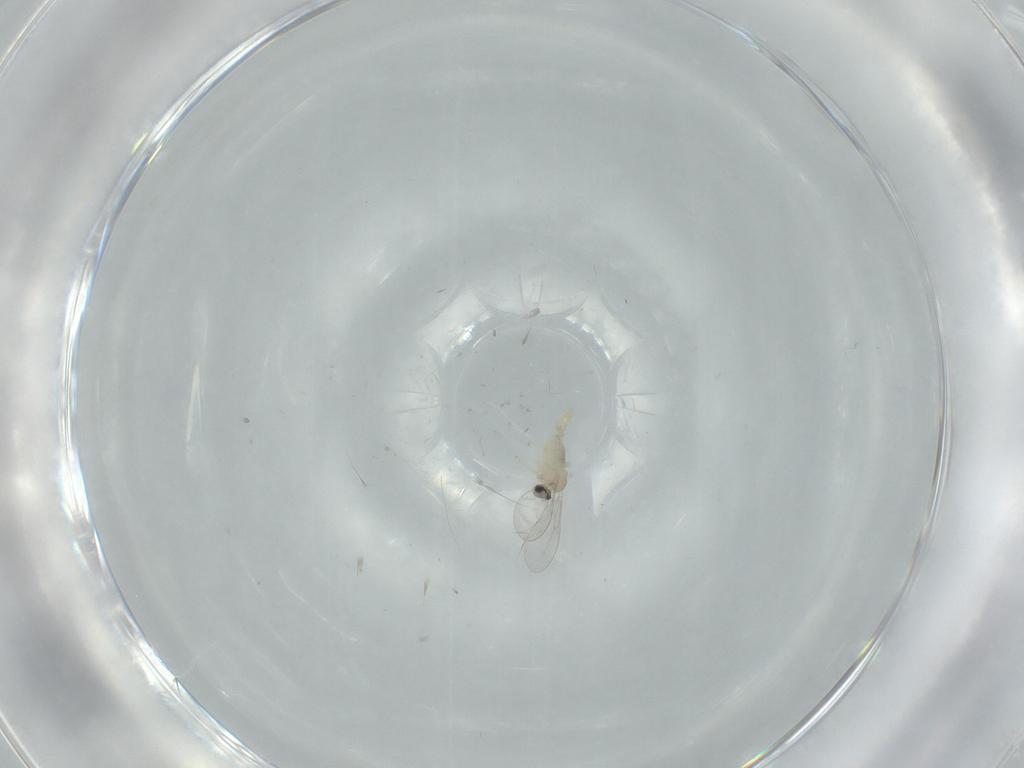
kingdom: Animalia
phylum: Arthropoda
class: Insecta
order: Diptera
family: Cecidomyiidae
